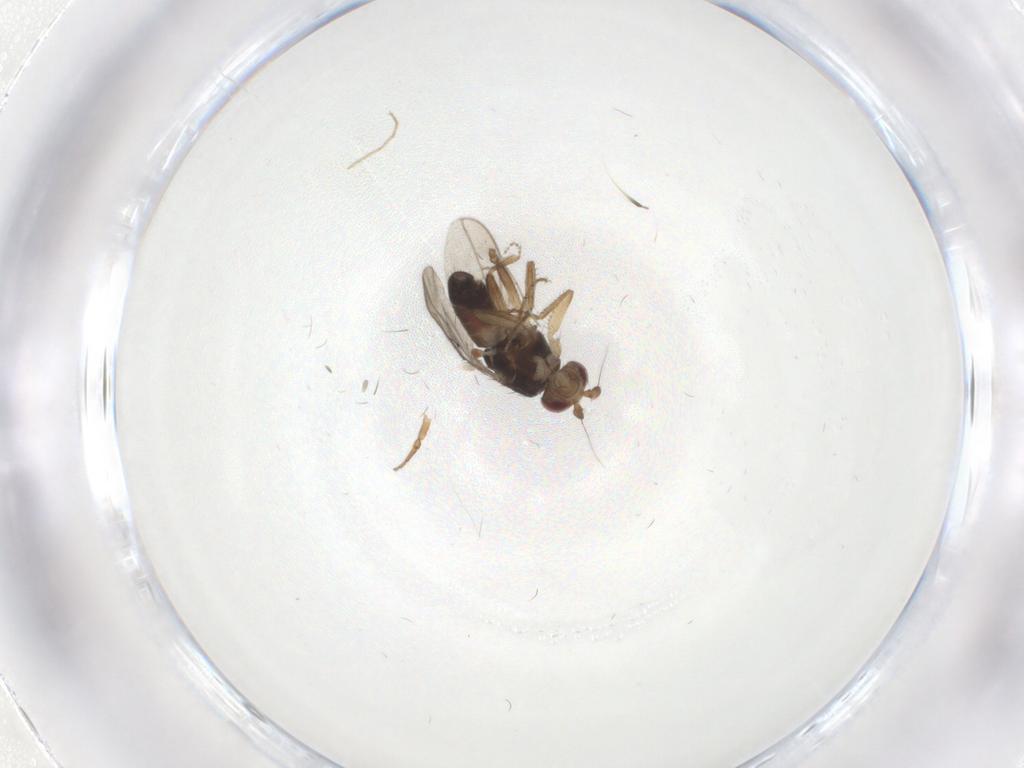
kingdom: Animalia
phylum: Arthropoda
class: Insecta
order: Diptera
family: Sphaeroceridae
